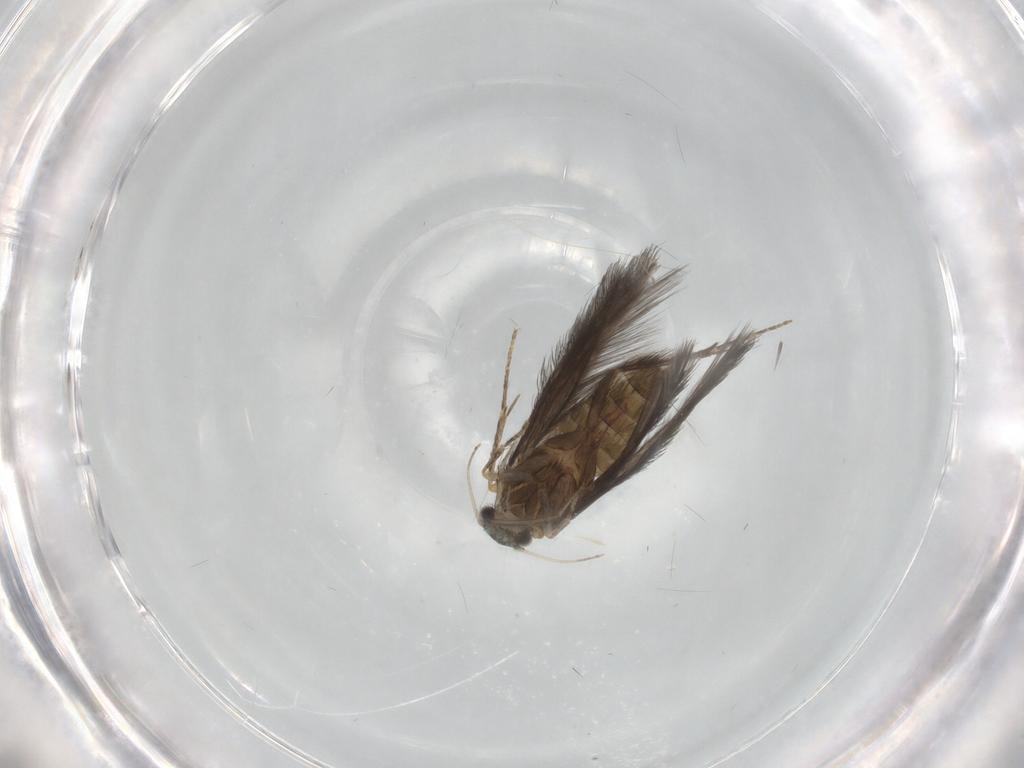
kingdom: Animalia
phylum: Arthropoda
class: Insecta
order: Trichoptera
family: Hydroptilidae
